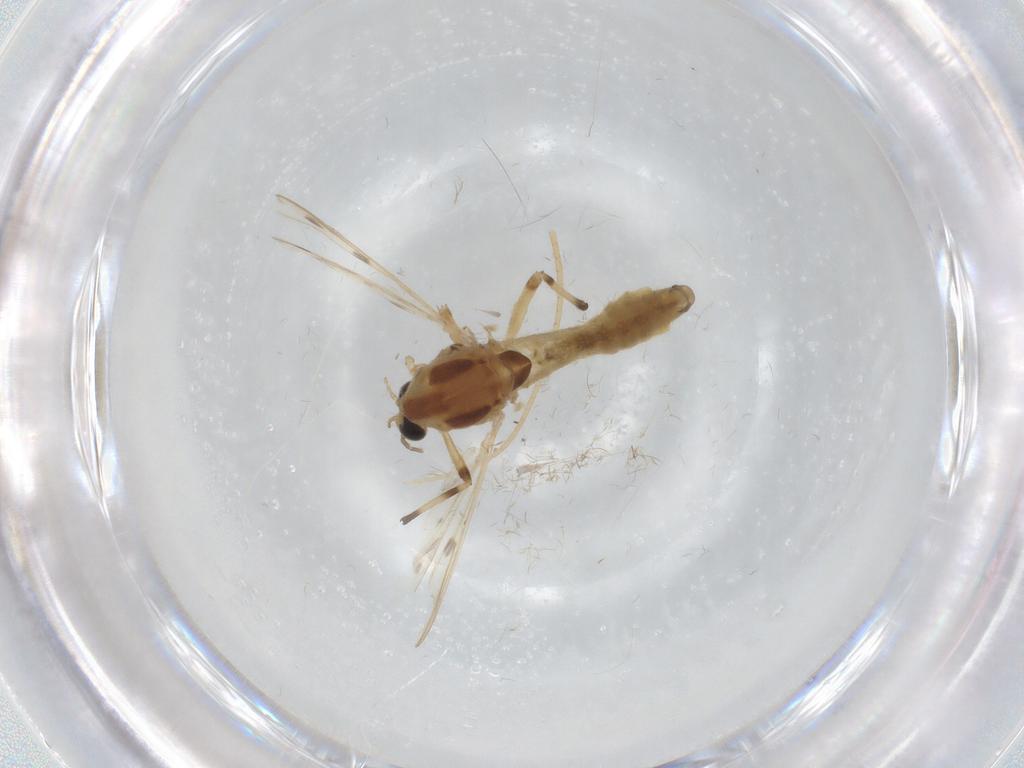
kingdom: Animalia
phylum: Arthropoda
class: Insecta
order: Diptera
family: Chironomidae
